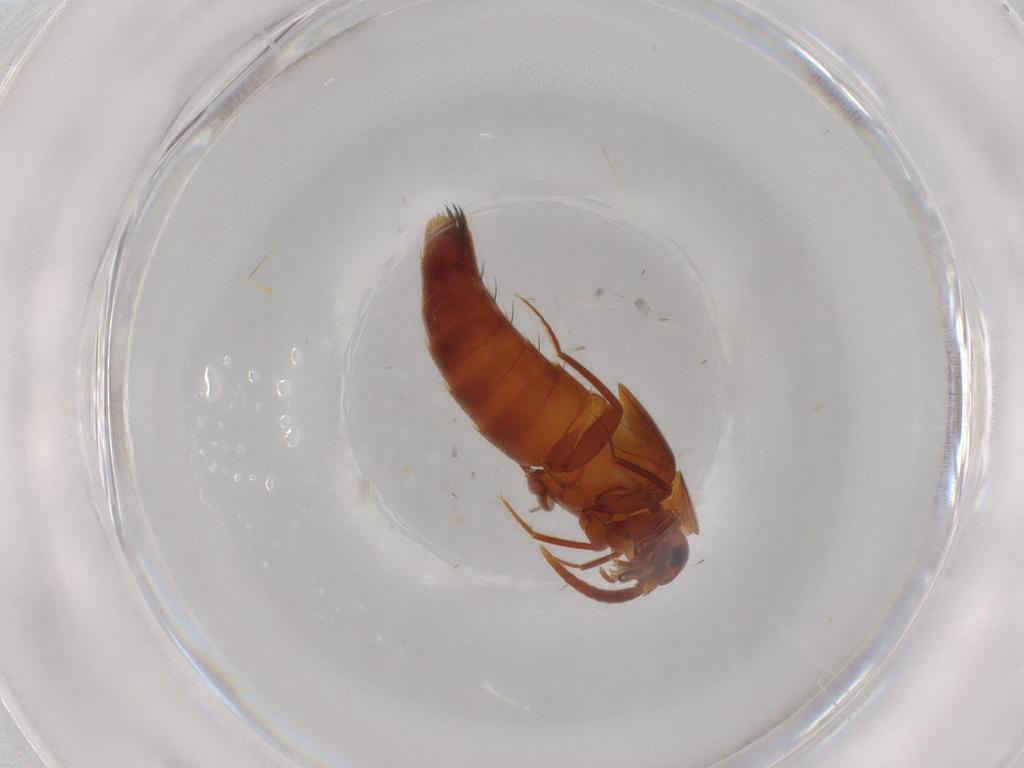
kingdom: Animalia
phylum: Arthropoda
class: Insecta
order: Coleoptera
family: Staphylinidae
